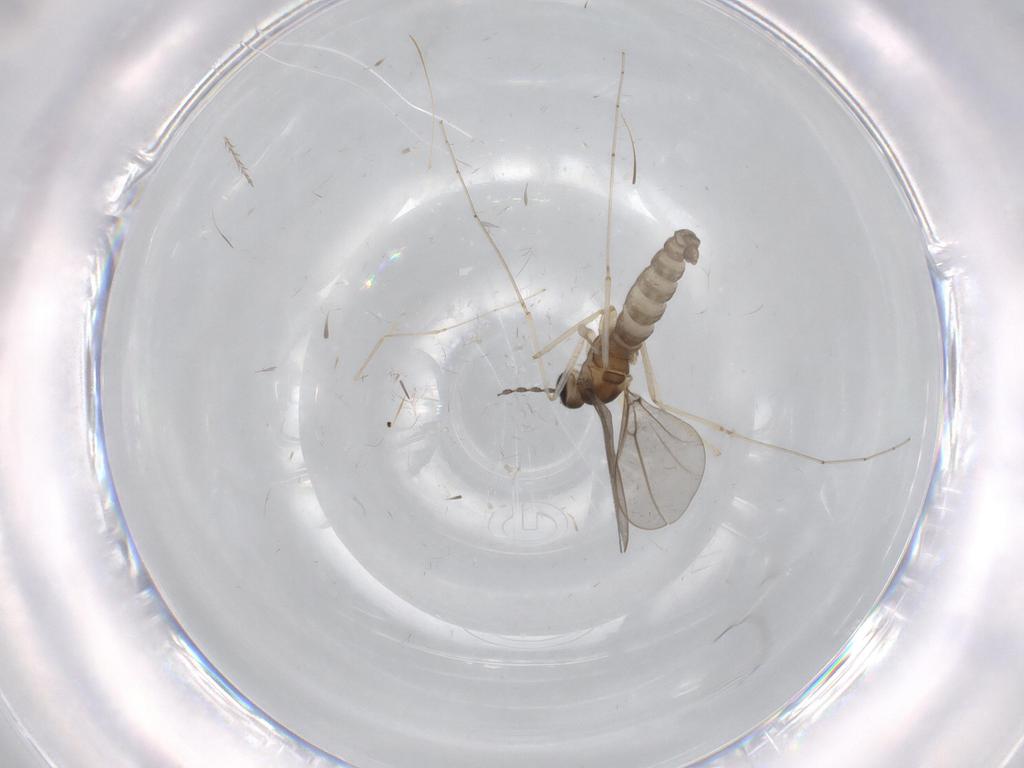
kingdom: Animalia
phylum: Arthropoda
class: Insecta
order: Diptera
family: Cecidomyiidae
